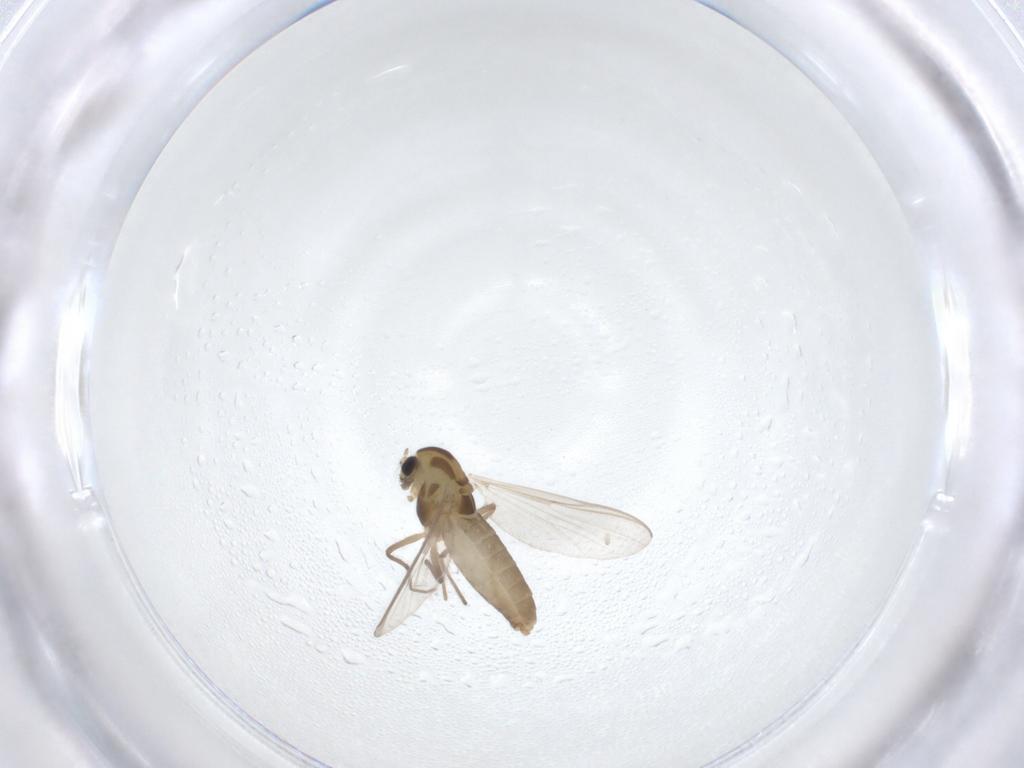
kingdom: Animalia
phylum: Arthropoda
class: Insecta
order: Diptera
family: Chironomidae
